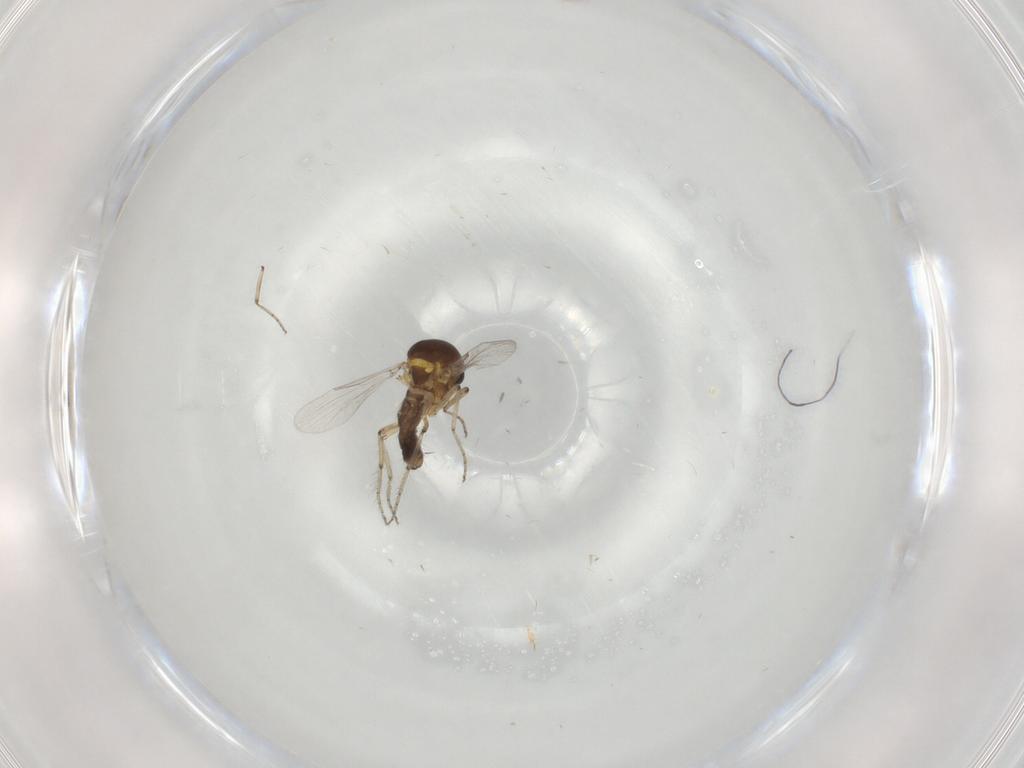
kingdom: Animalia
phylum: Arthropoda
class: Insecta
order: Diptera
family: Ceratopogonidae
